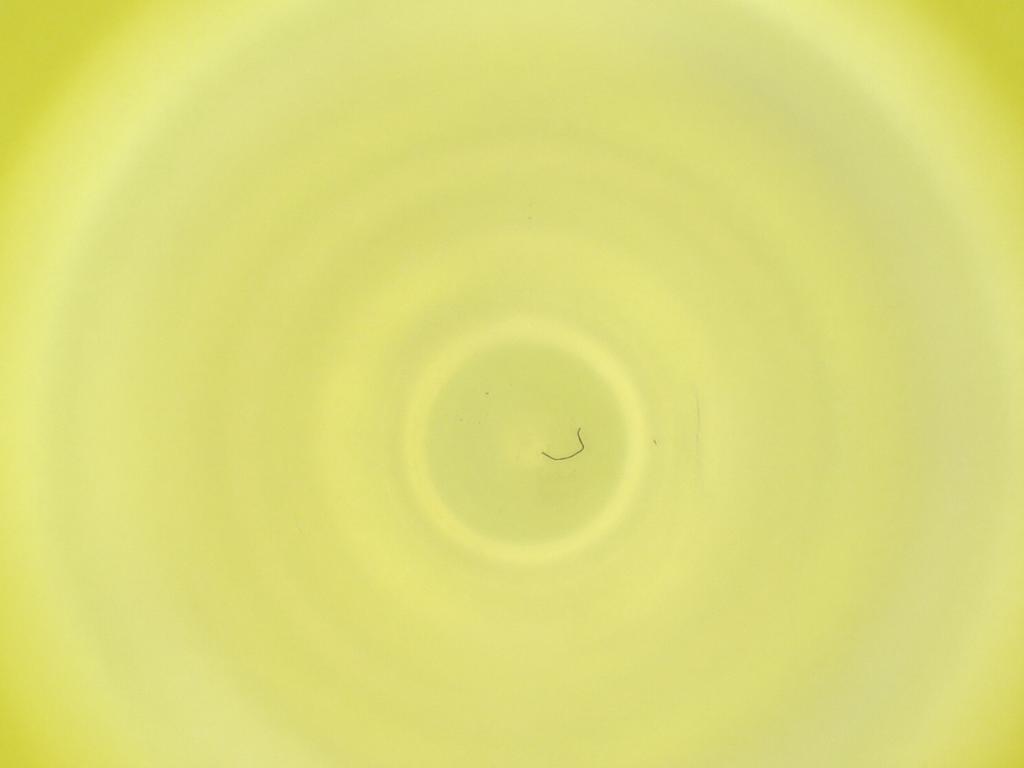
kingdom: Animalia
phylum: Arthropoda
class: Insecta
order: Diptera
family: Cecidomyiidae
